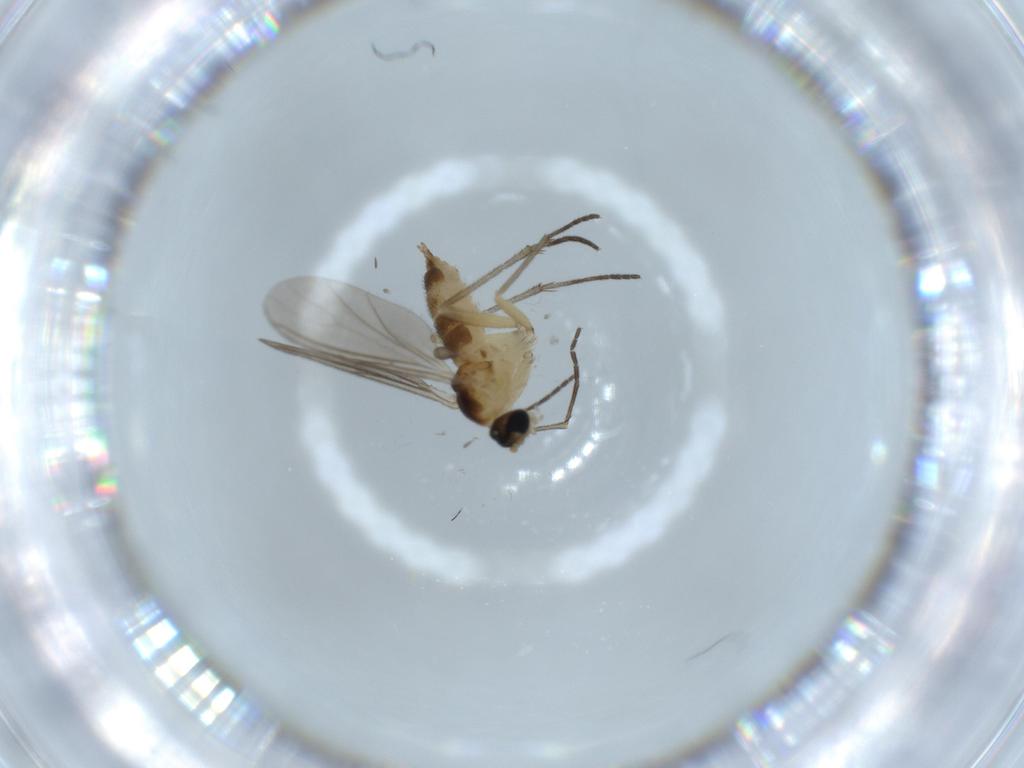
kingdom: Animalia
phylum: Arthropoda
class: Insecta
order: Diptera
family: Sciaridae
